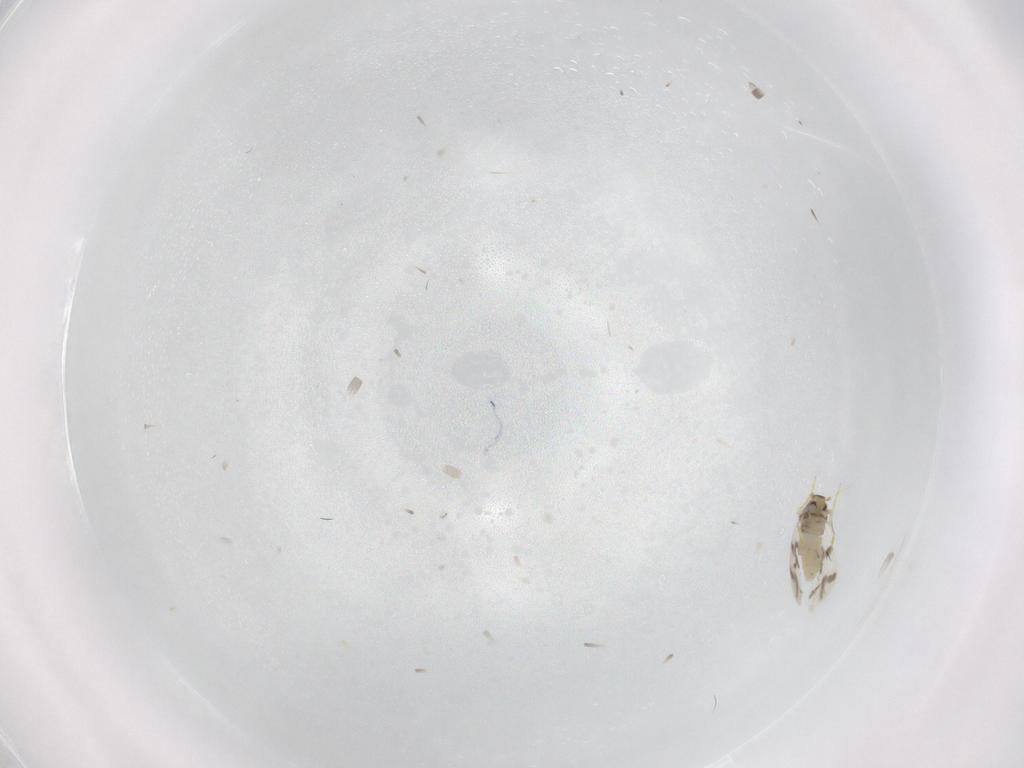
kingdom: Animalia
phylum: Arthropoda
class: Insecta
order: Hemiptera
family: Aleyrodidae
